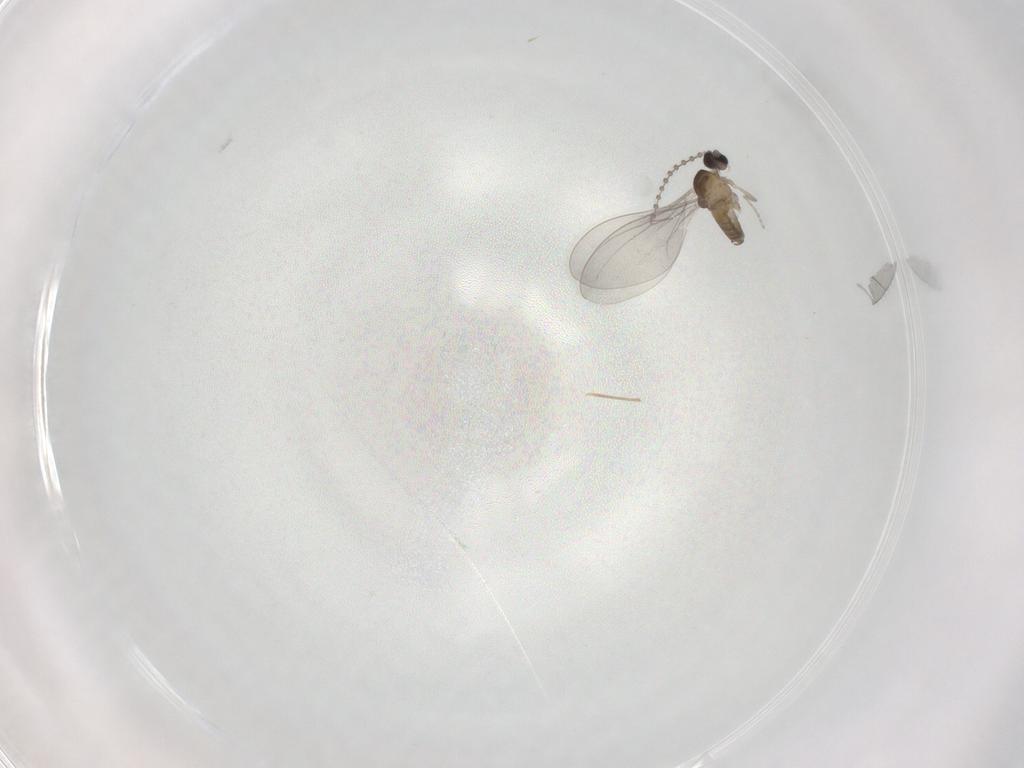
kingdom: Animalia
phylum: Arthropoda
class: Insecta
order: Diptera
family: Cecidomyiidae
